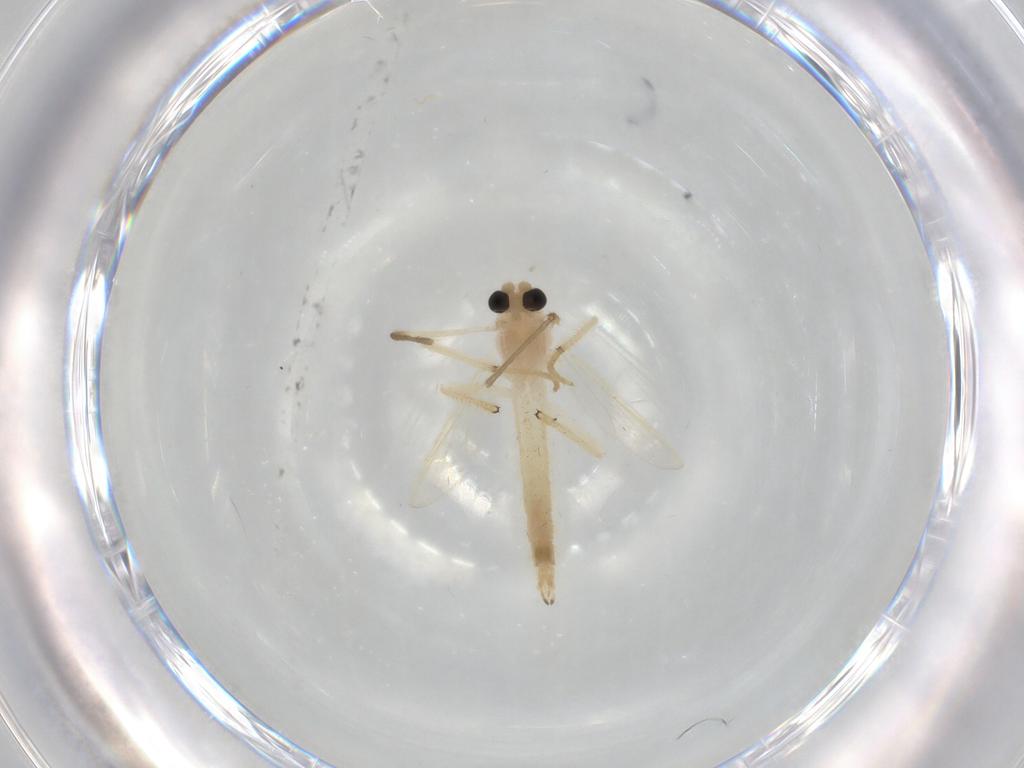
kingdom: Animalia
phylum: Arthropoda
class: Insecta
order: Diptera
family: Chironomidae
